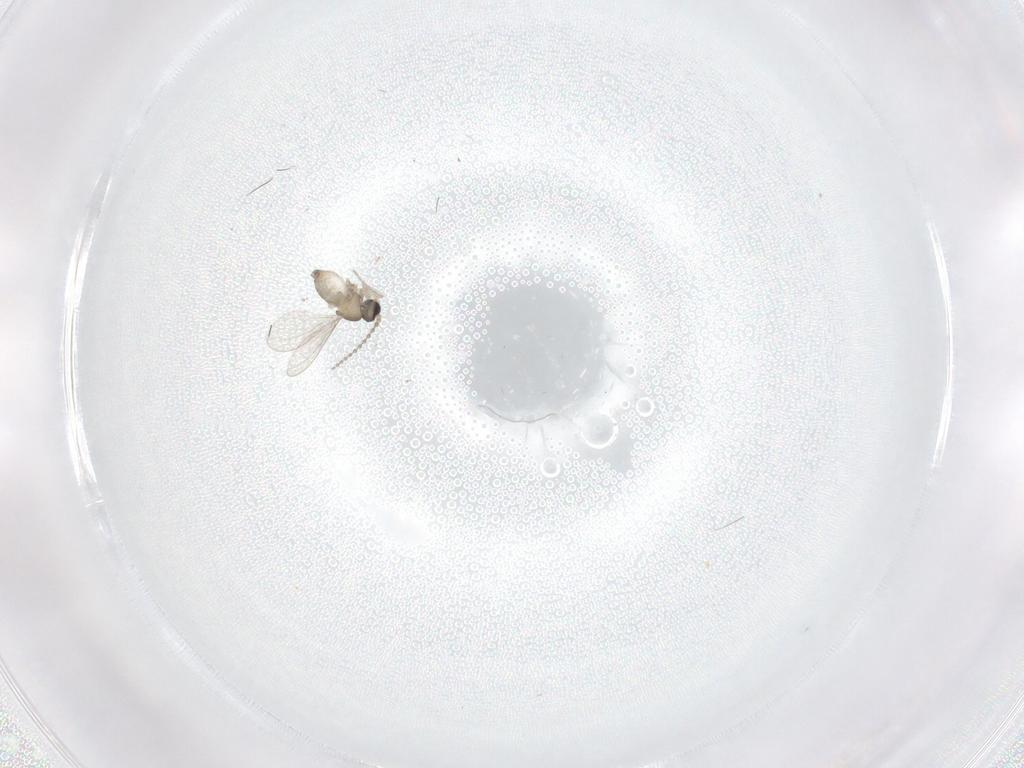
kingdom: Animalia
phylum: Arthropoda
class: Insecta
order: Diptera
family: Cecidomyiidae
